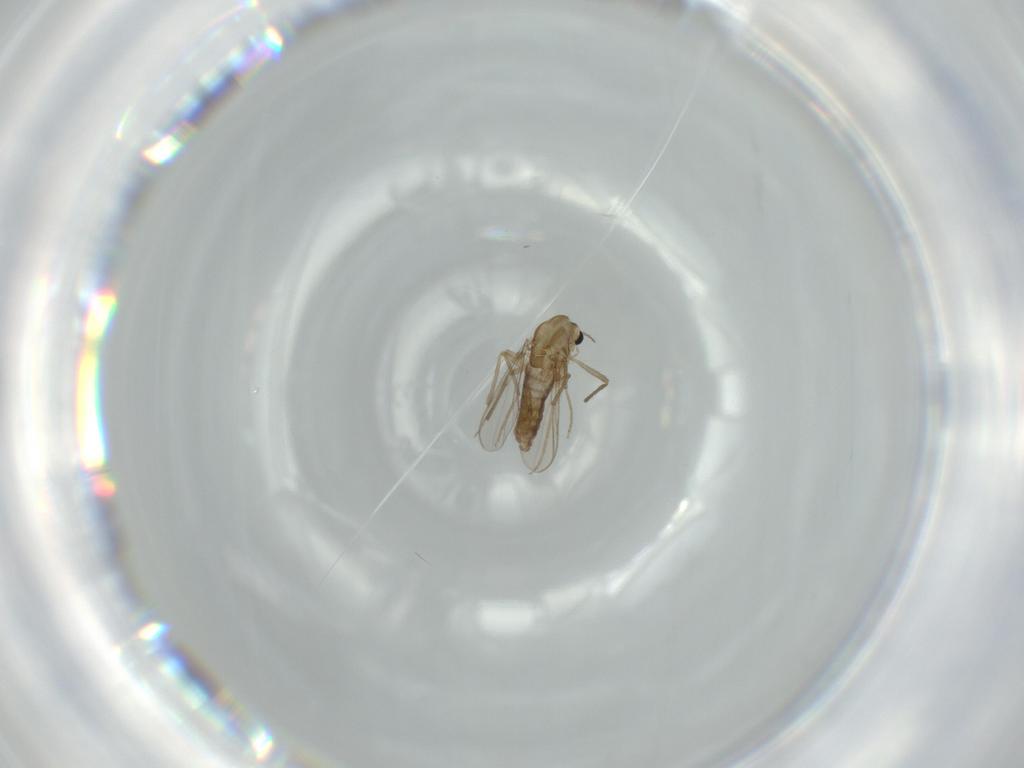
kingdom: Animalia
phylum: Arthropoda
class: Insecta
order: Diptera
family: Chironomidae
